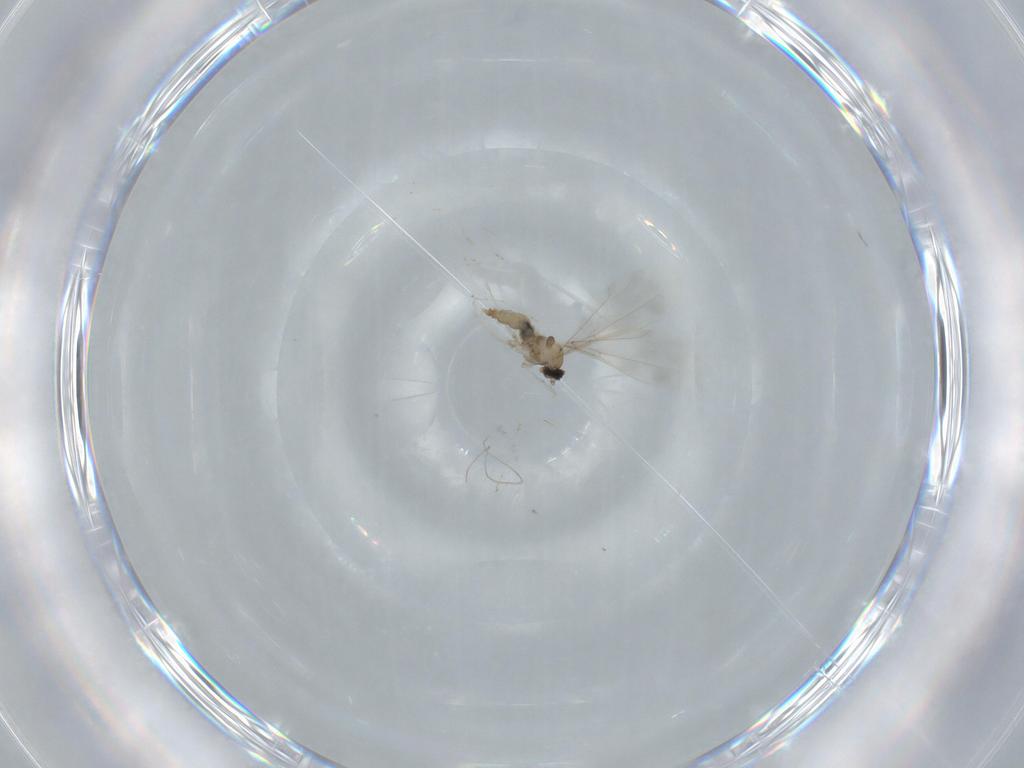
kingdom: Animalia
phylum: Arthropoda
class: Insecta
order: Diptera
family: Cecidomyiidae
